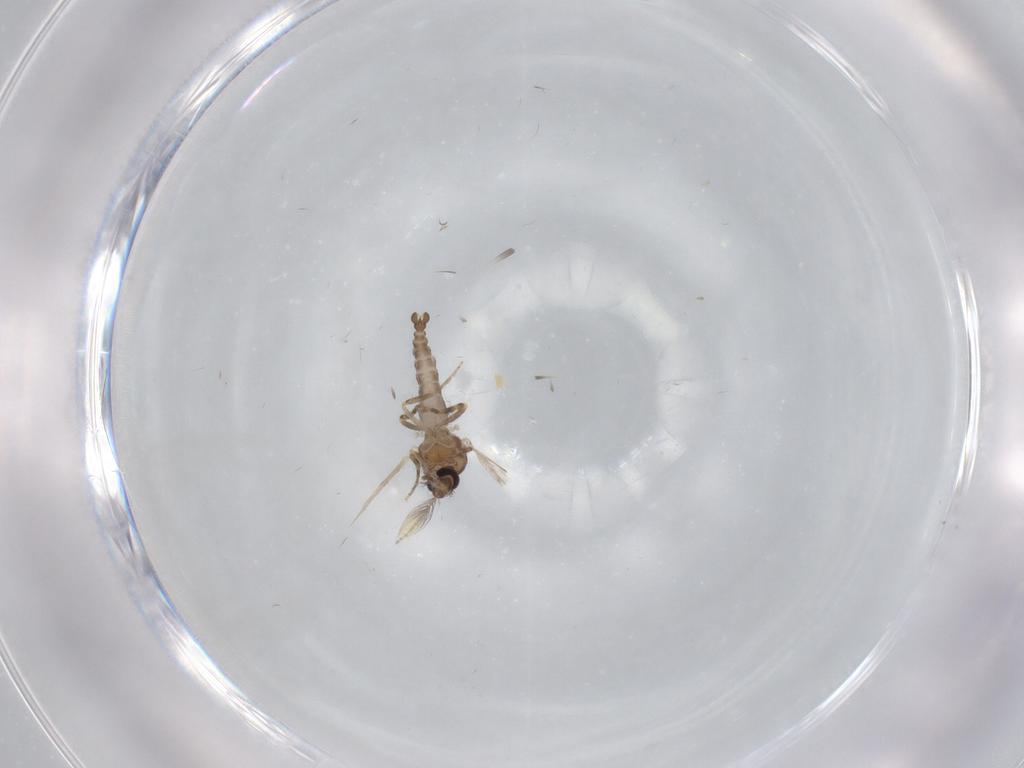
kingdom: Animalia
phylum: Arthropoda
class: Insecta
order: Diptera
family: Ceratopogonidae
